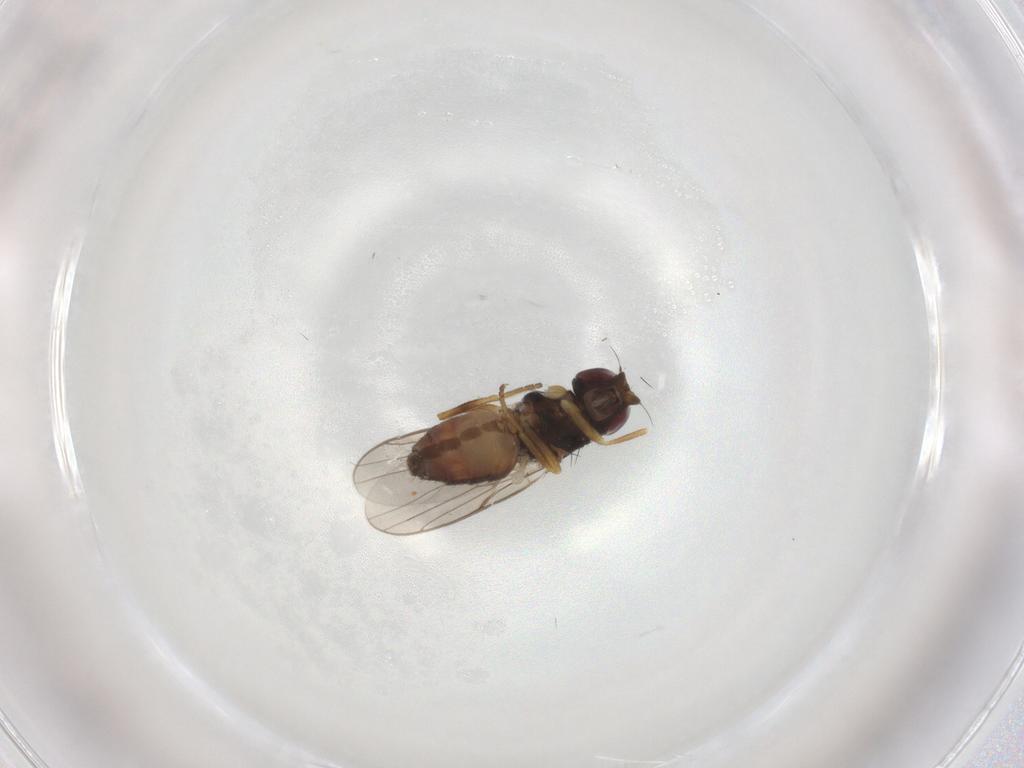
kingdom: Animalia
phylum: Arthropoda
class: Insecta
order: Diptera
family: Chloropidae
